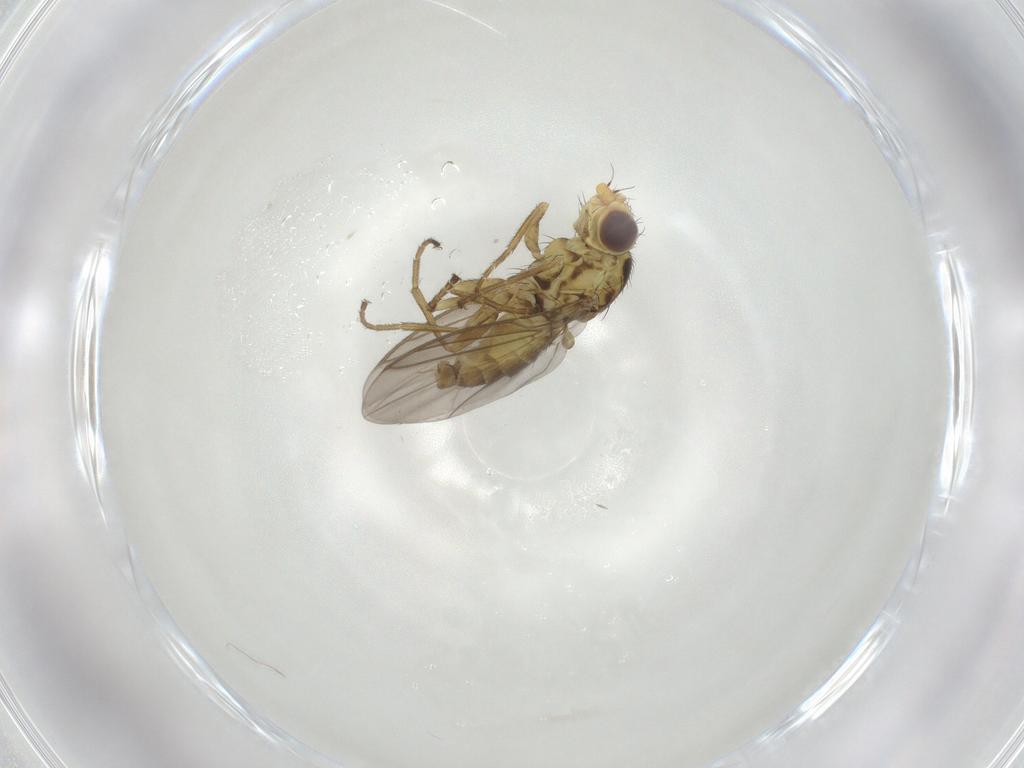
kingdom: Animalia
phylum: Arthropoda
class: Insecta
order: Diptera
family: Agromyzidae
